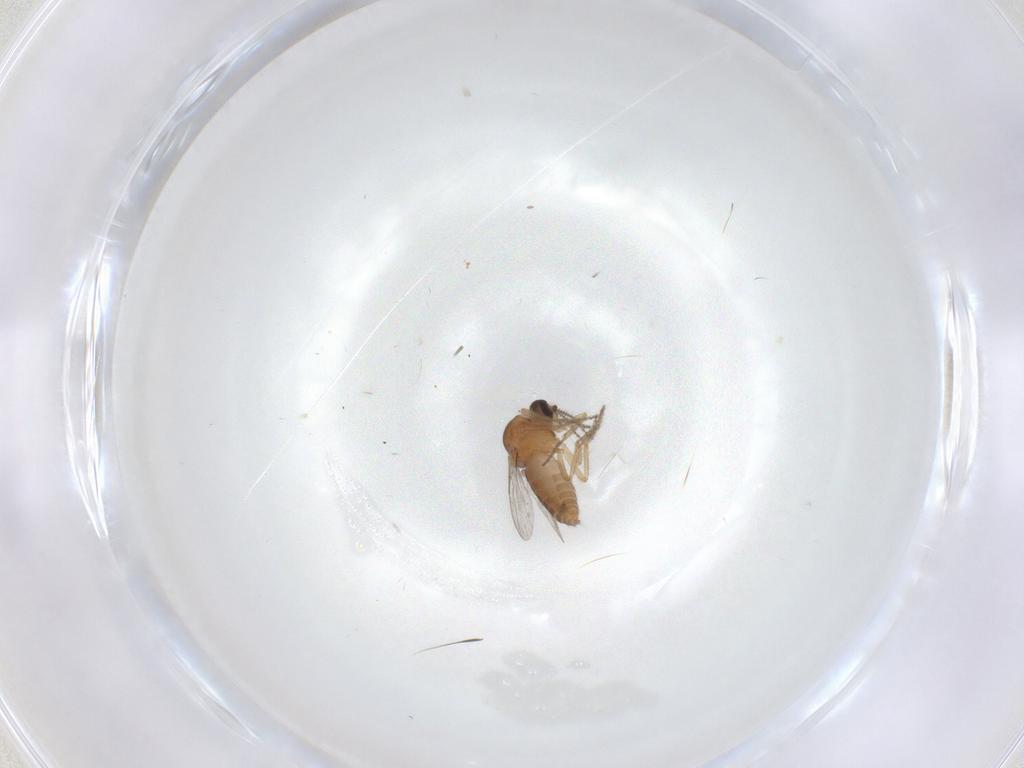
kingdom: Animalia
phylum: Arthropoda
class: Insecta
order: Diptera
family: Ceratopogonidae
